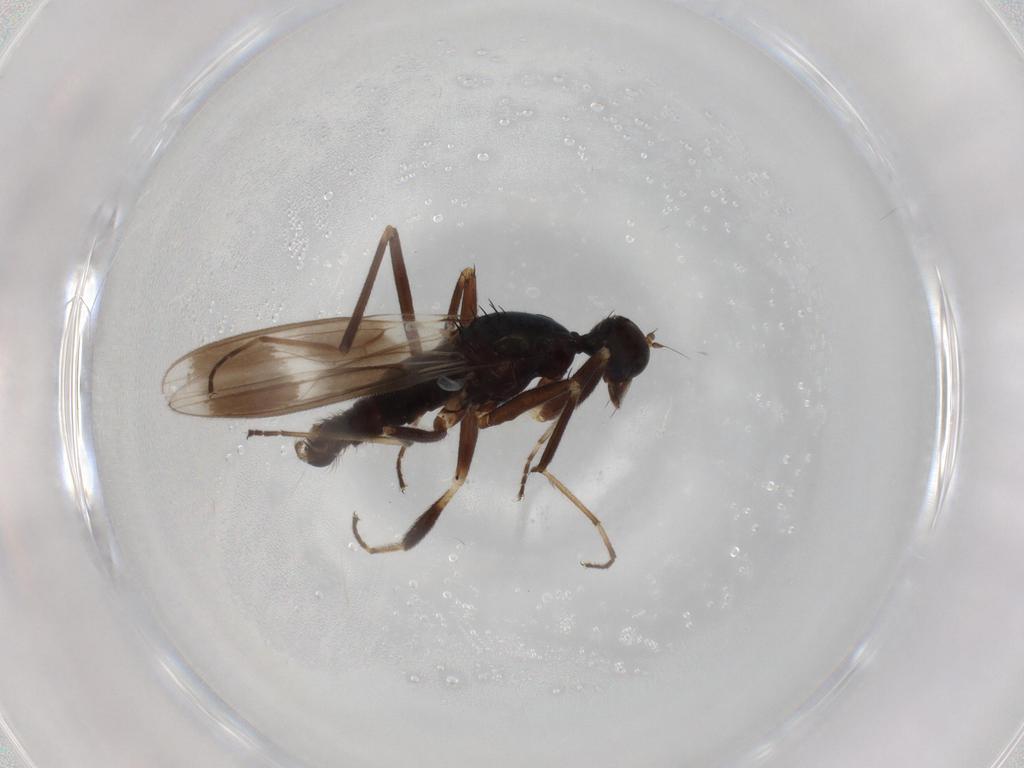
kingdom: Animalia
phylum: Arthropoda
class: Insecta
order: Diptera
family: Hybotidae
